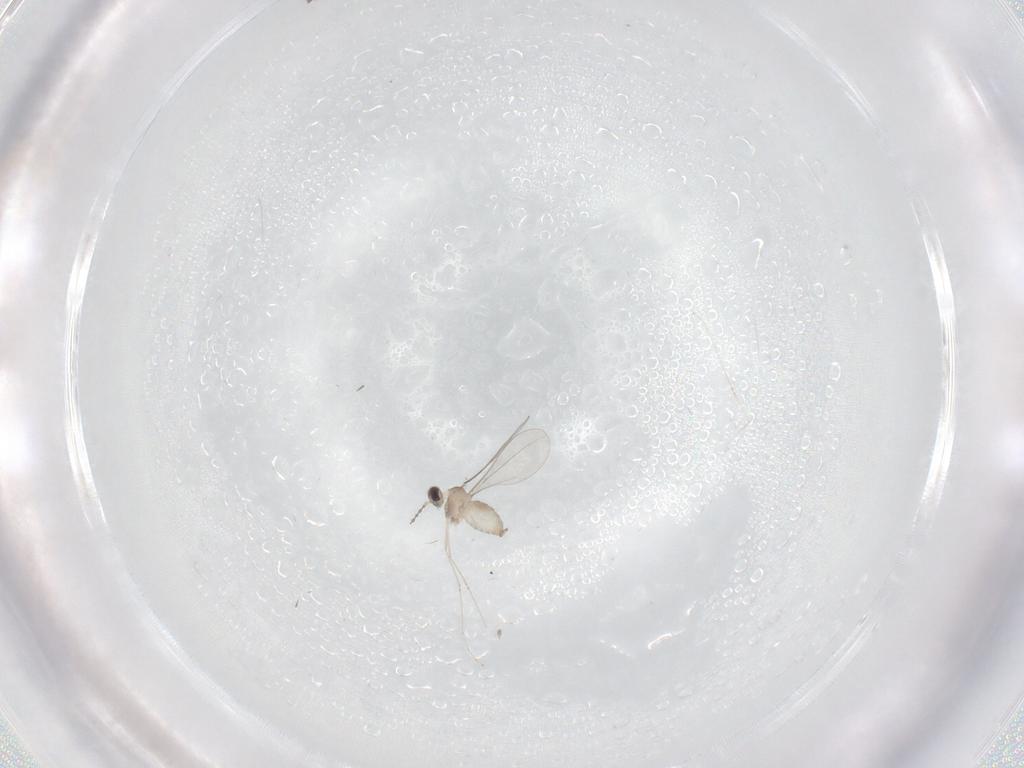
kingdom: Animalia
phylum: Arthropoda
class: Insecta
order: Diptera
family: Cecidomyiidae
